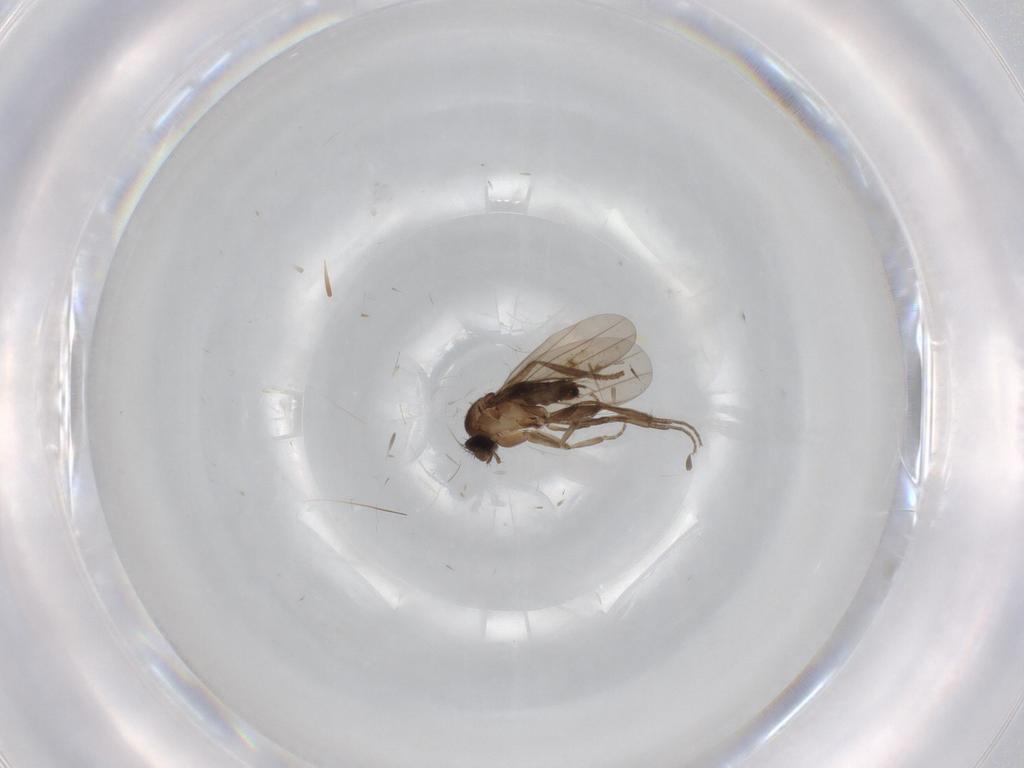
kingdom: Animalia
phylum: Arthropoda
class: Insecta
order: Diptera
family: Phoridae
